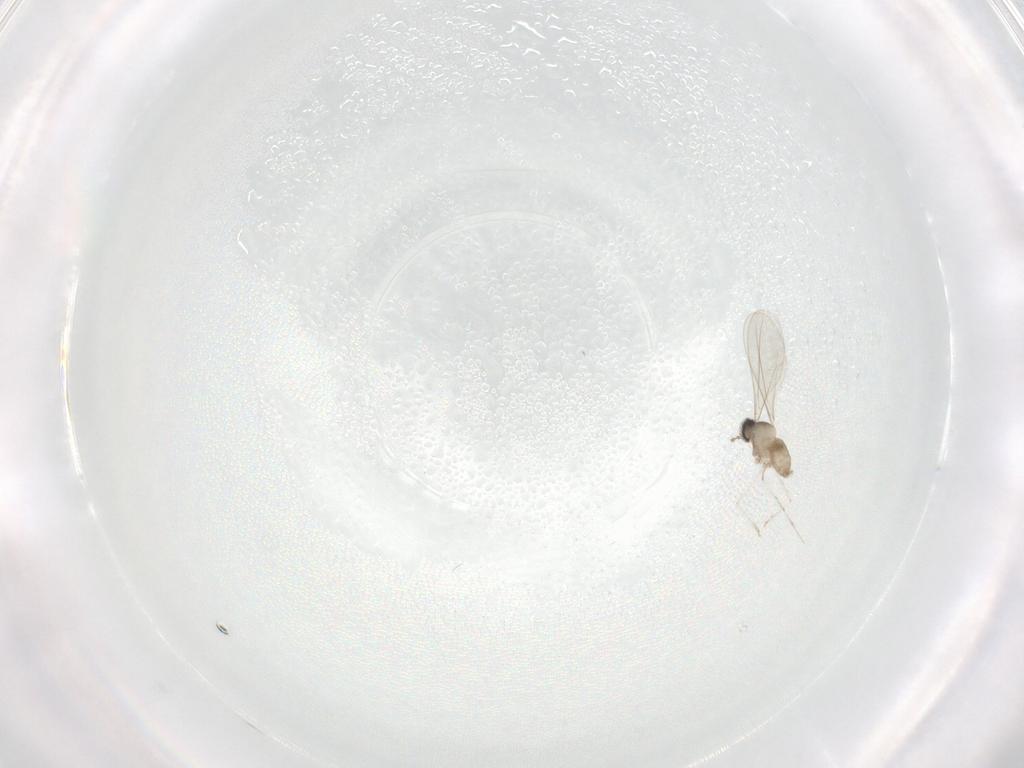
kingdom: Animalia
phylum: Arthropoda
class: Insecta
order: Diptera
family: Cecidomyiidae
